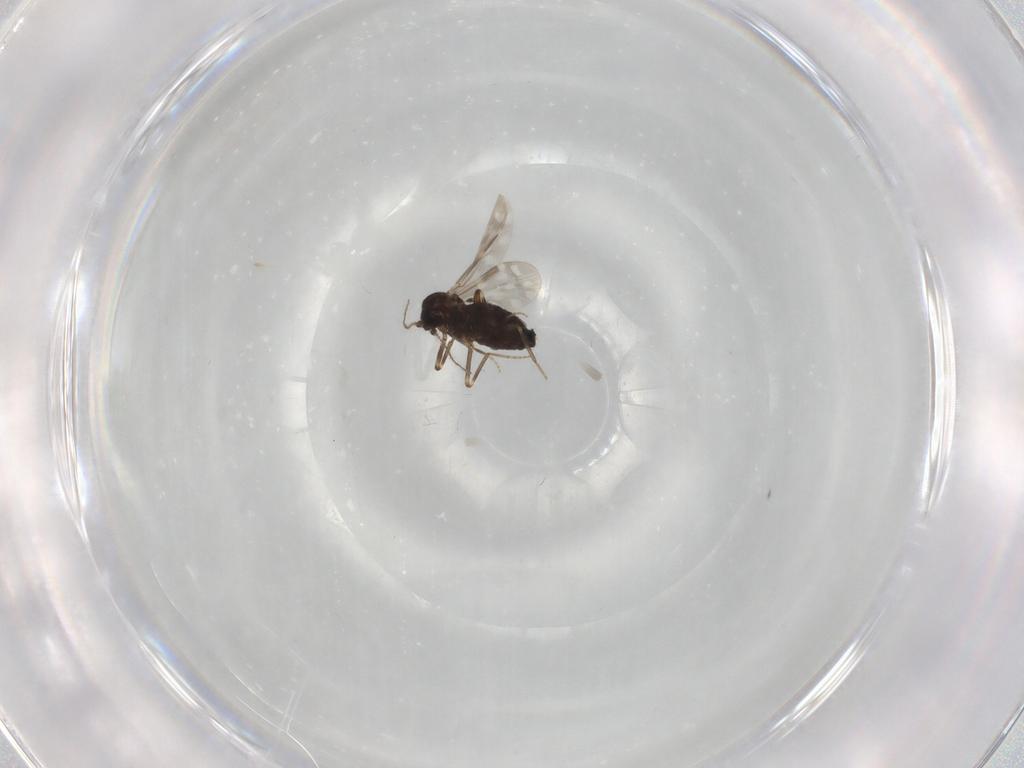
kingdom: Animalia
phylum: Arthropoda
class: Insecta
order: Diptera
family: Ceratopogonidae
